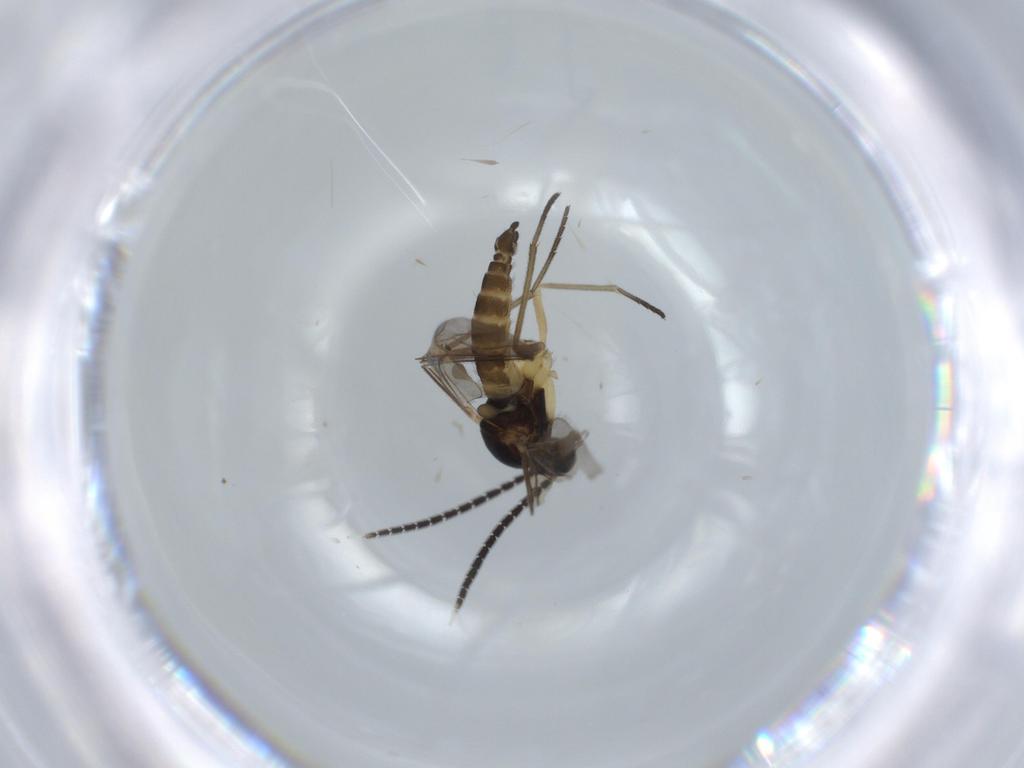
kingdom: Animalia
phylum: Arthropoda
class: Insecta
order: Diptera
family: Sciaridae
